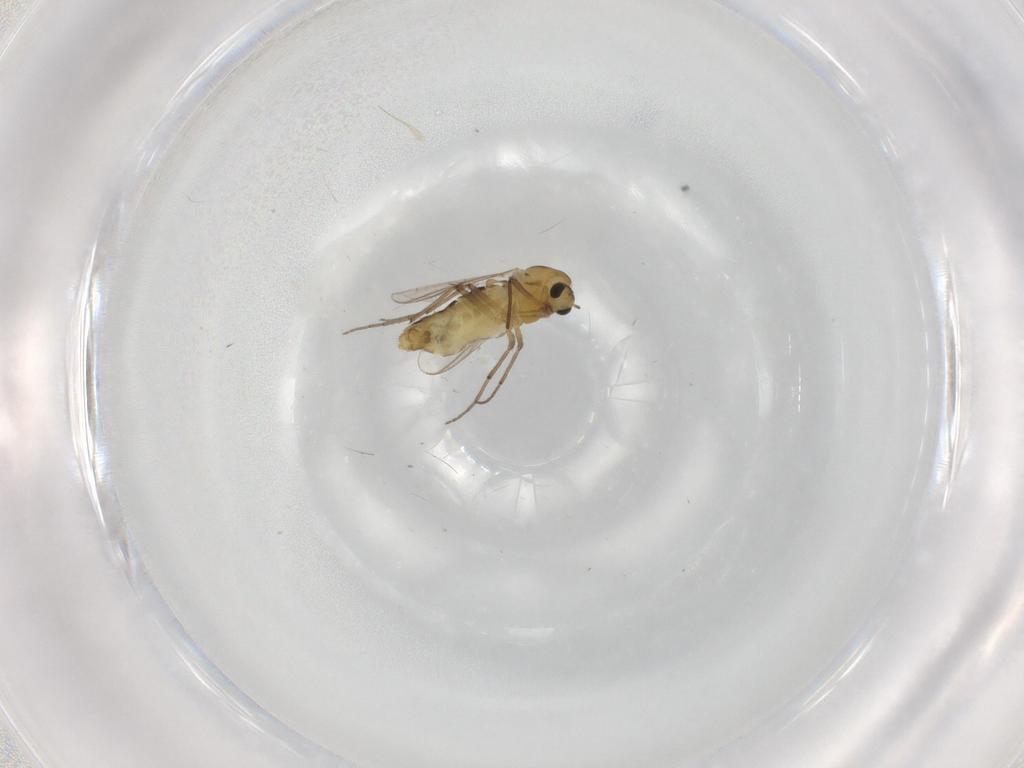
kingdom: Animalia
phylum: Arthropoda
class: Insecta
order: Diptera
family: Chironomidae
